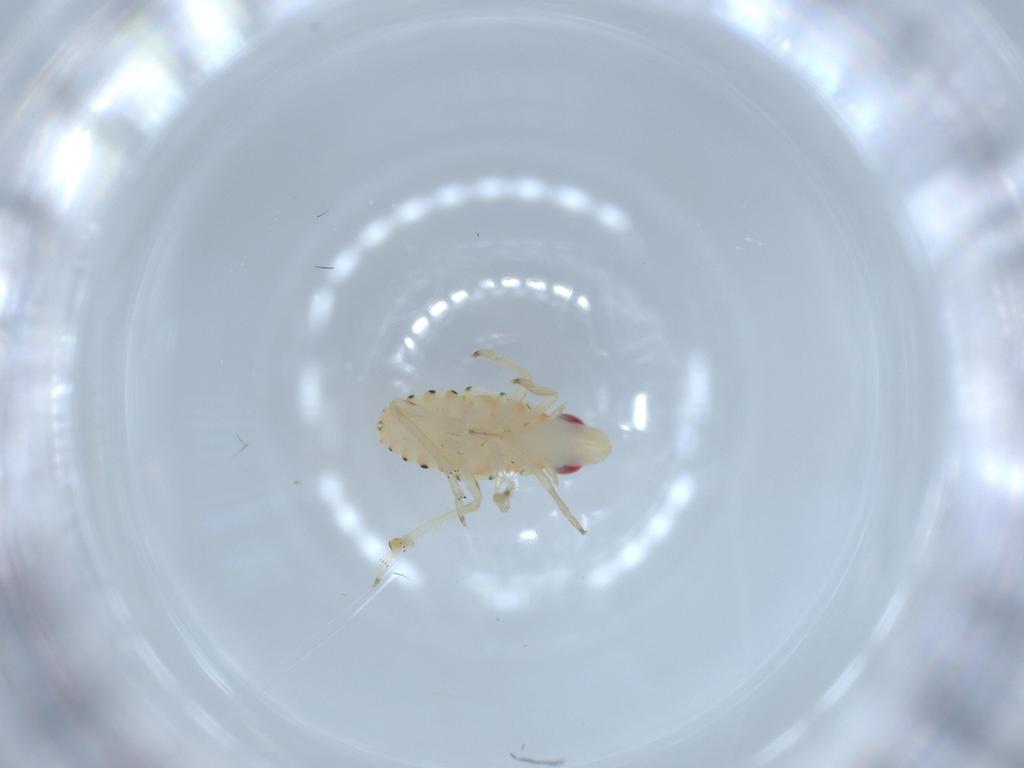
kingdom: Animalia
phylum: Arthropoda
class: Insecta
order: Hemiptera
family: Tropiduchidae
